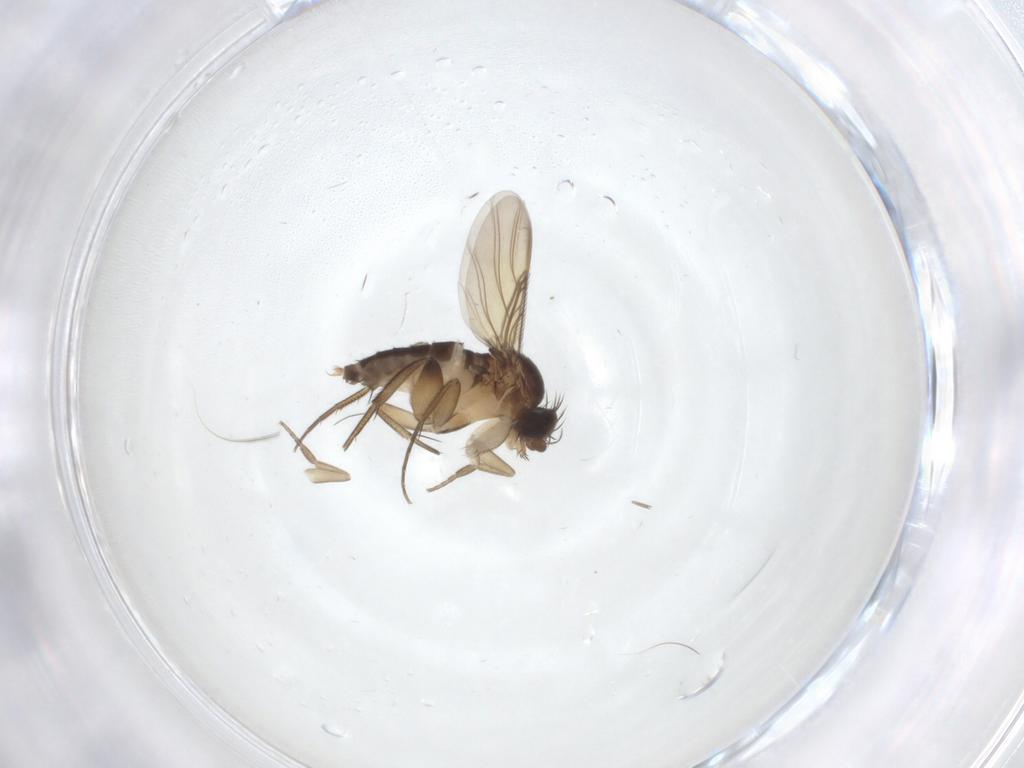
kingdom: Animalia
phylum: Arthropoda
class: Insecta
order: Diptera
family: Phoridae
